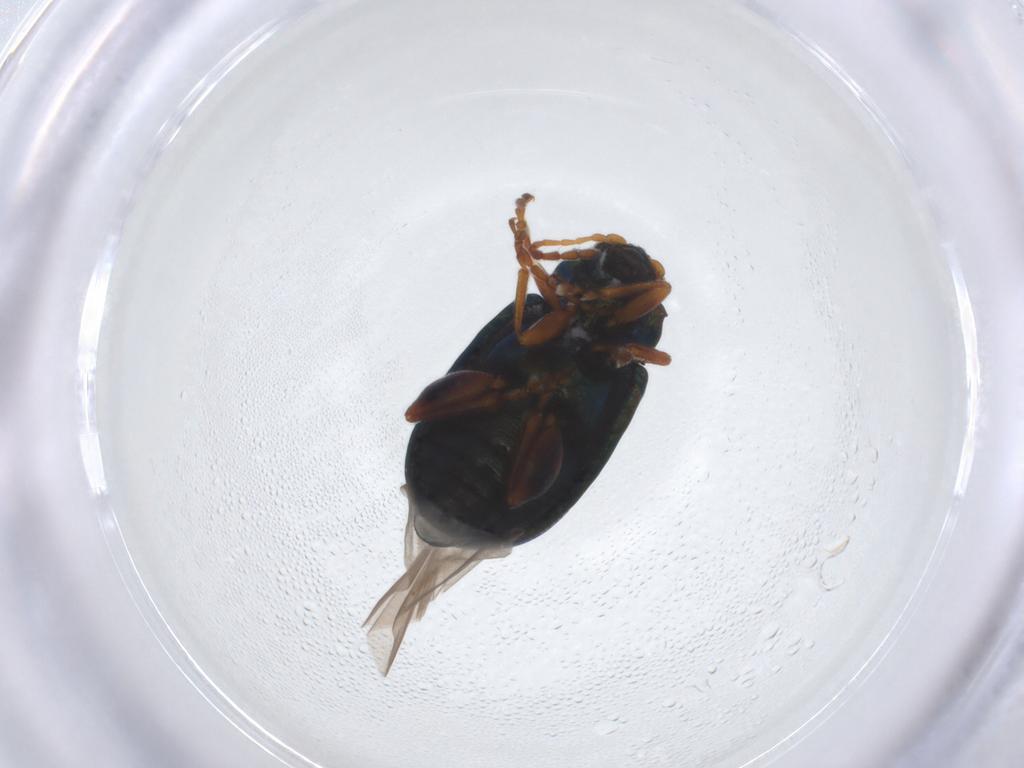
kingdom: Animalia
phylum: Arthropoda
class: Insecta
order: Coleoptera
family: Chrysomelidae
